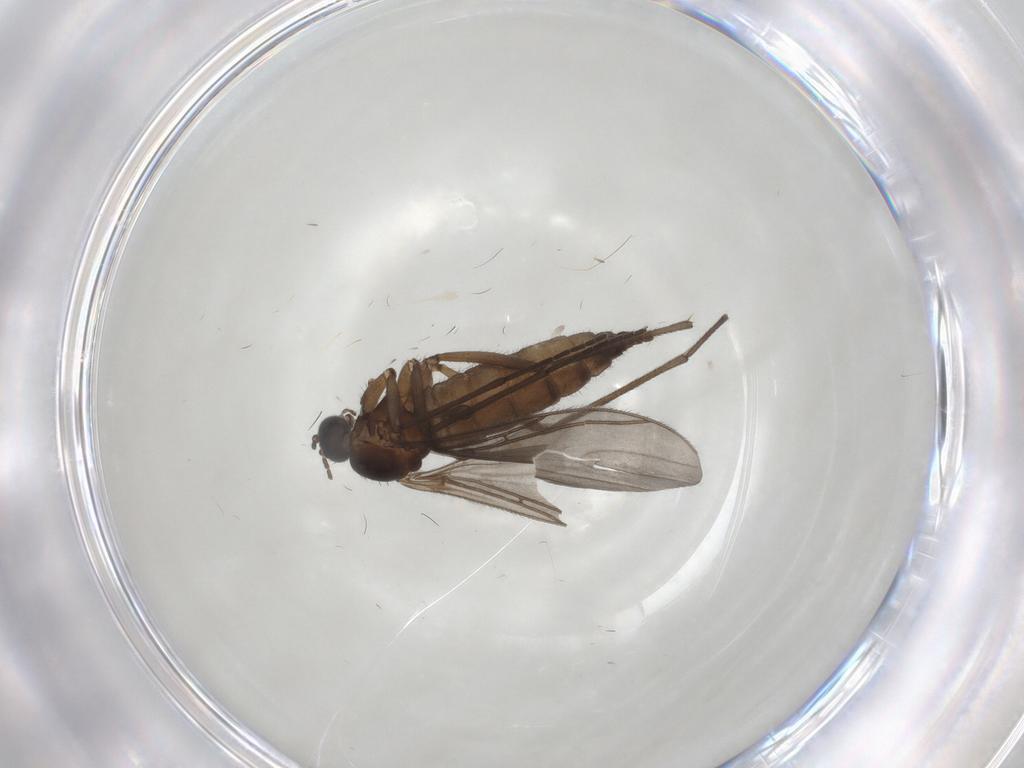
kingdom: Animalia
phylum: Arthropoda
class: Insecta
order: Diptera
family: Sciaridae
